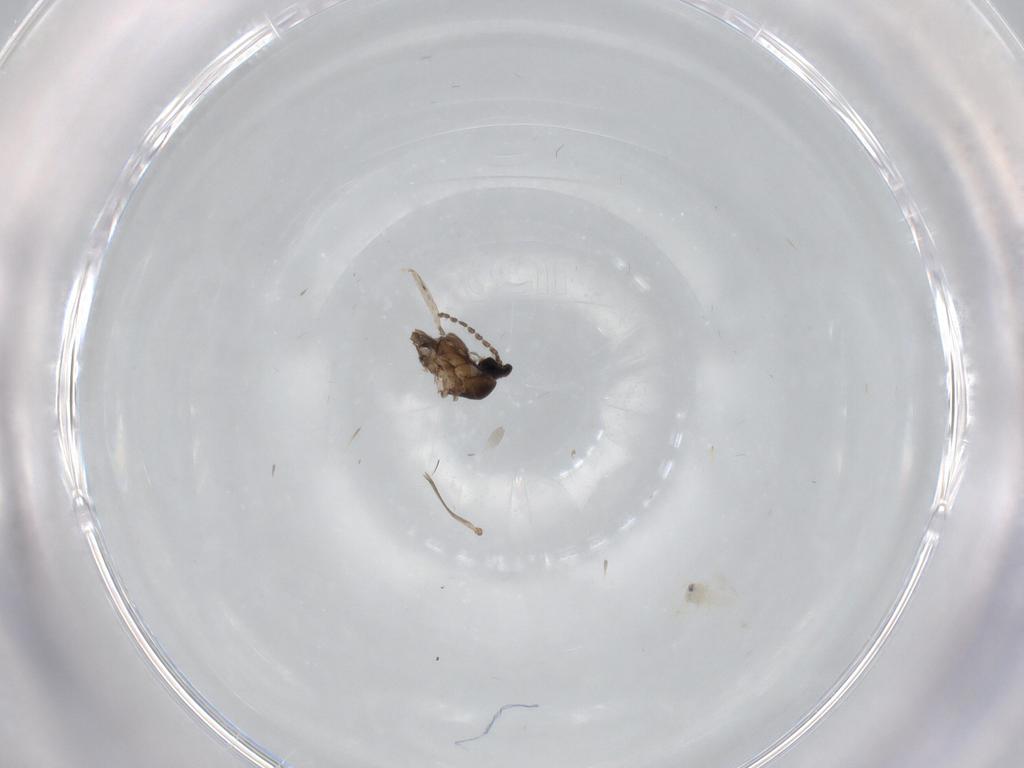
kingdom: Animalia
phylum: Arthropoda
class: Insecta
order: Diptera
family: Cecidomyiidae
